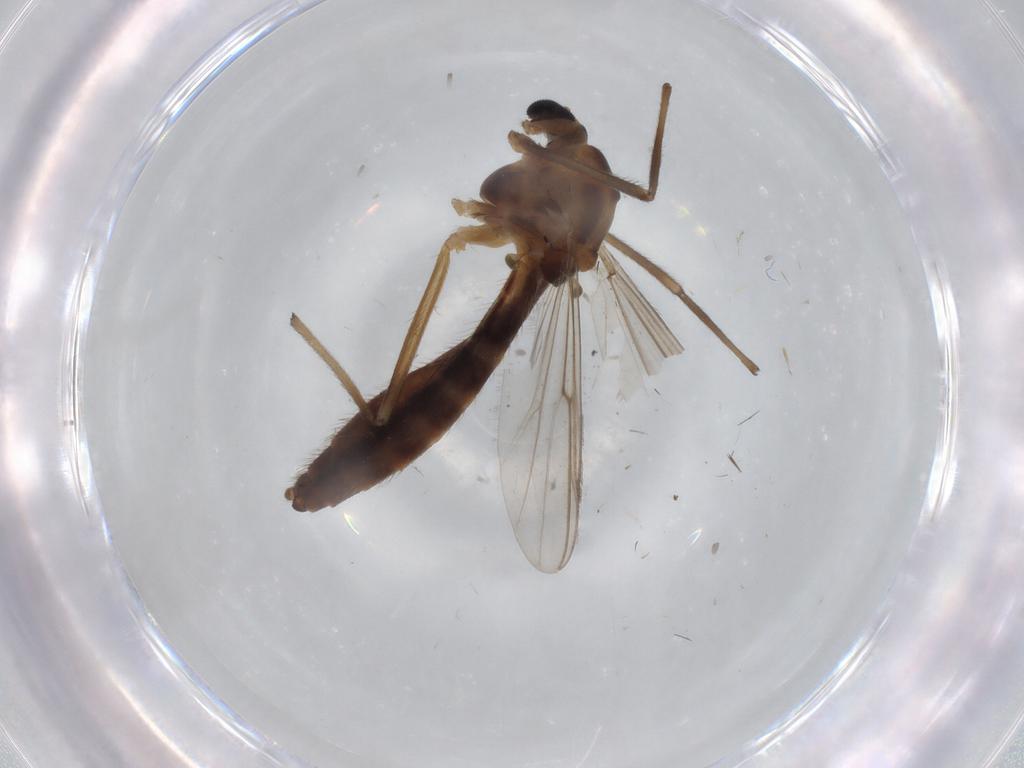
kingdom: Animalia
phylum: Arthropoda
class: Insecta
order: Diptera
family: Chironomidae
